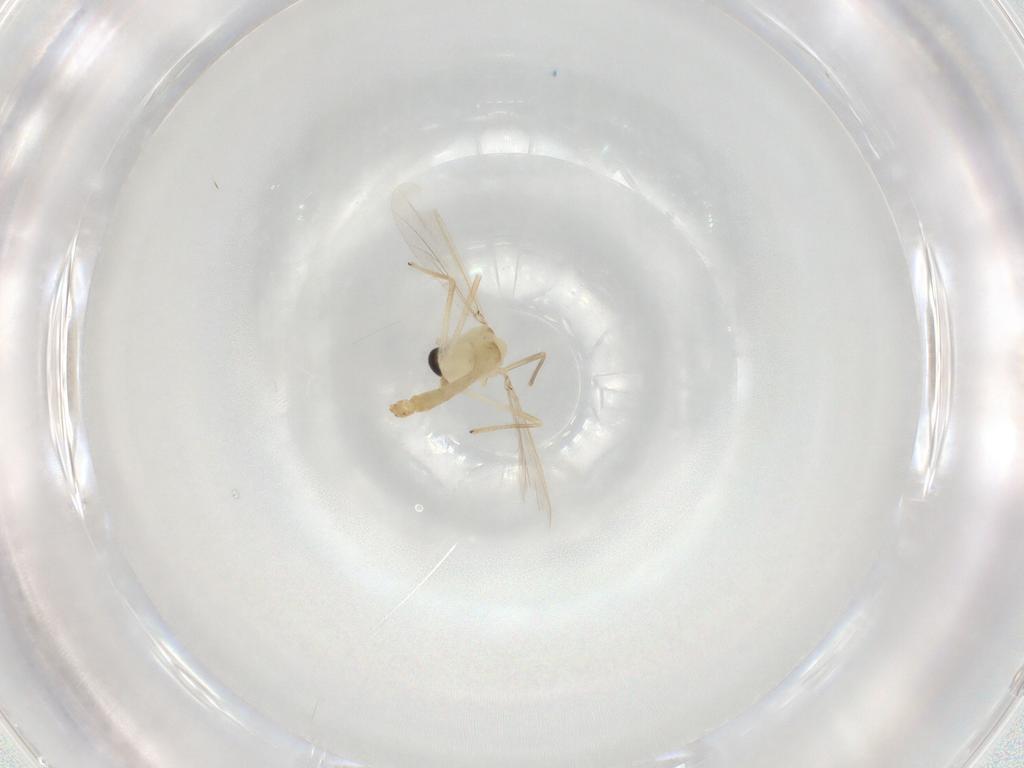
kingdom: Animalia
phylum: Arthropoda
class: Insecta
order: Diptera
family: Chironomidae
